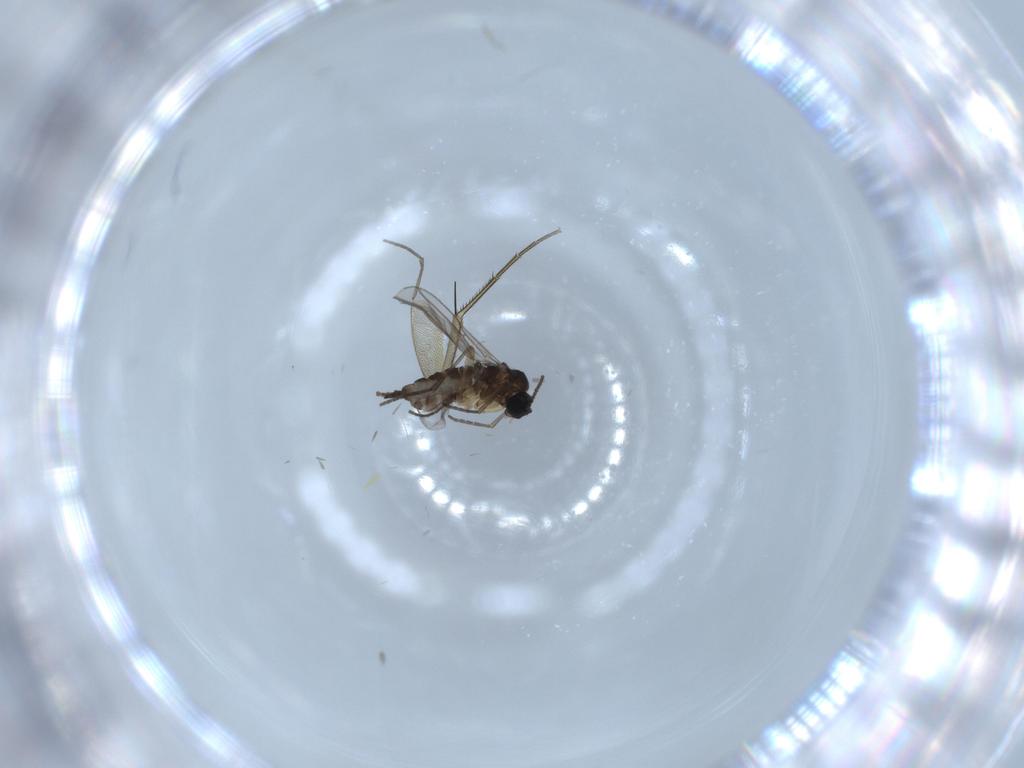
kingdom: Animalia
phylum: Arthropoda
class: Insecta
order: Diptera
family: Sciaridae
